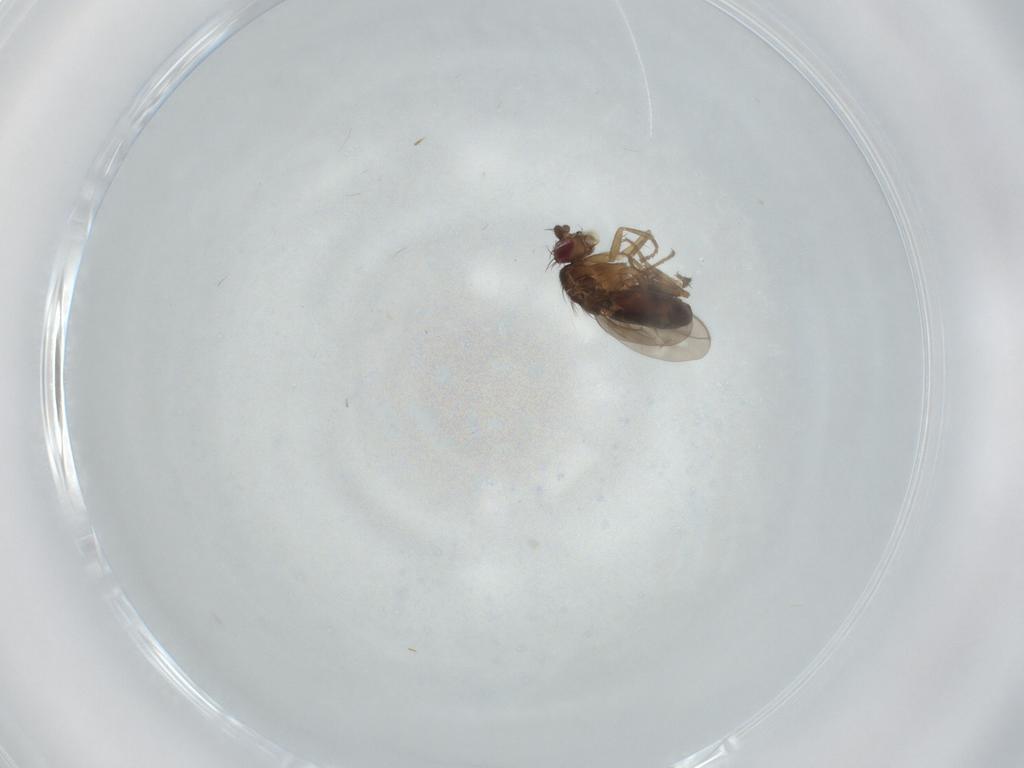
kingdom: Animalia
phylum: Arthropoda
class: Insecta
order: Diptera
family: Sphaeroceridae
